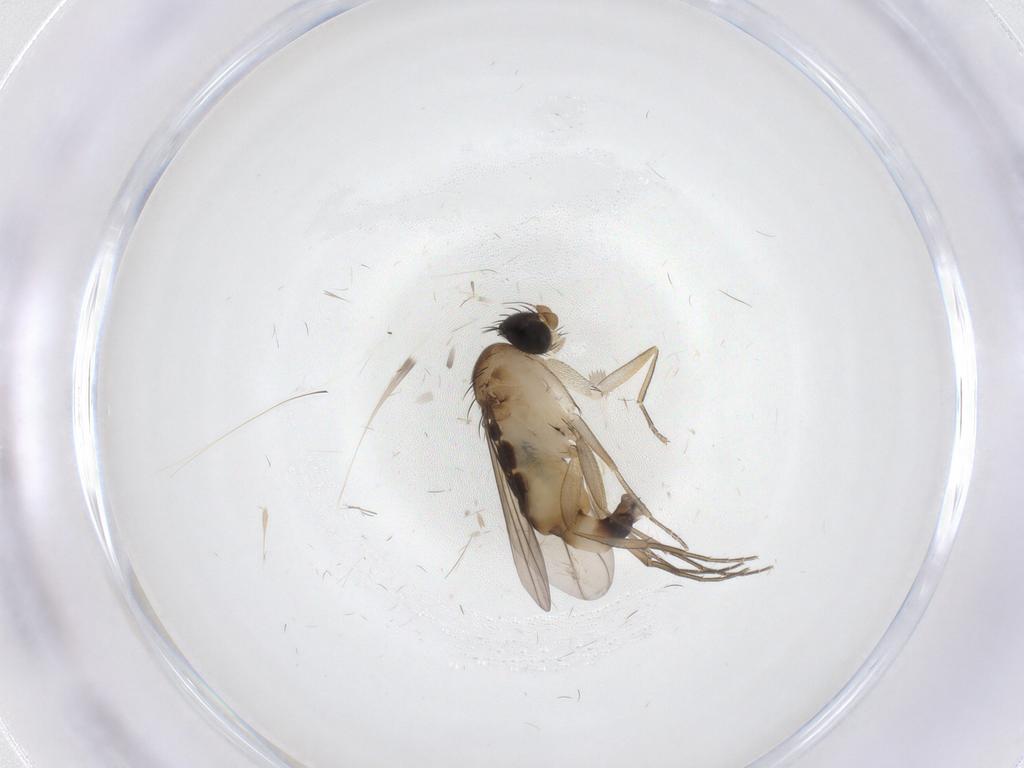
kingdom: Animalia
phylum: Arthropoda
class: Insecta
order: Diptera
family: Phoridae
